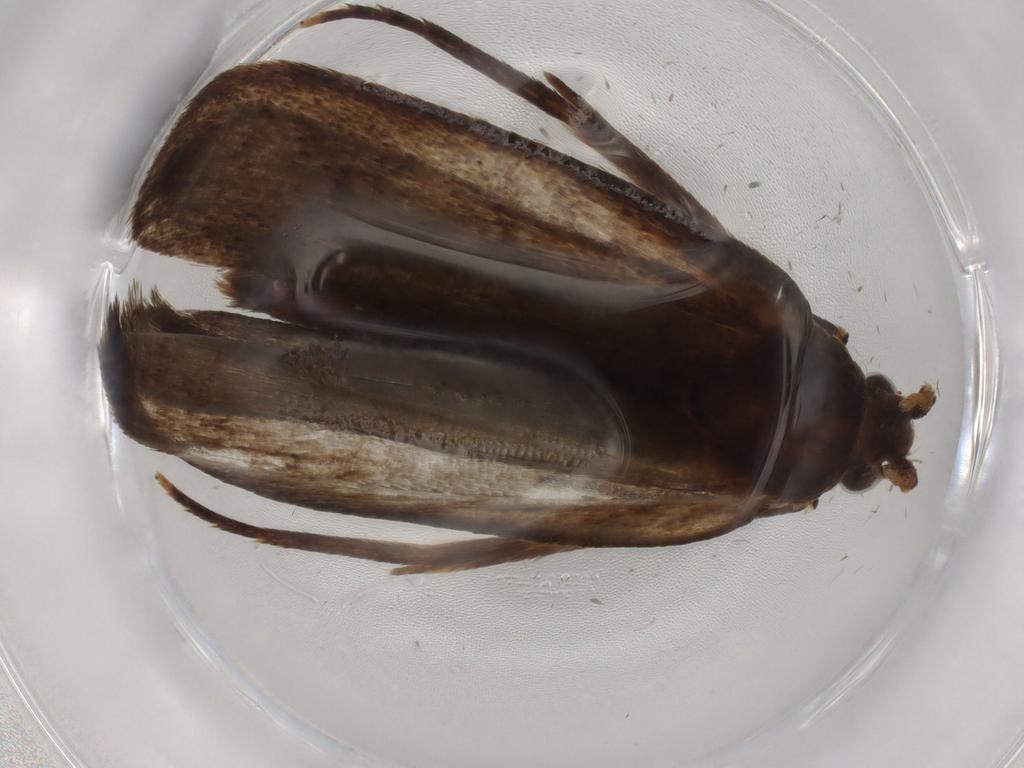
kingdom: Animalia
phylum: Arthropoda
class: Insecta
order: Lepidoptera
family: Autostichidae
